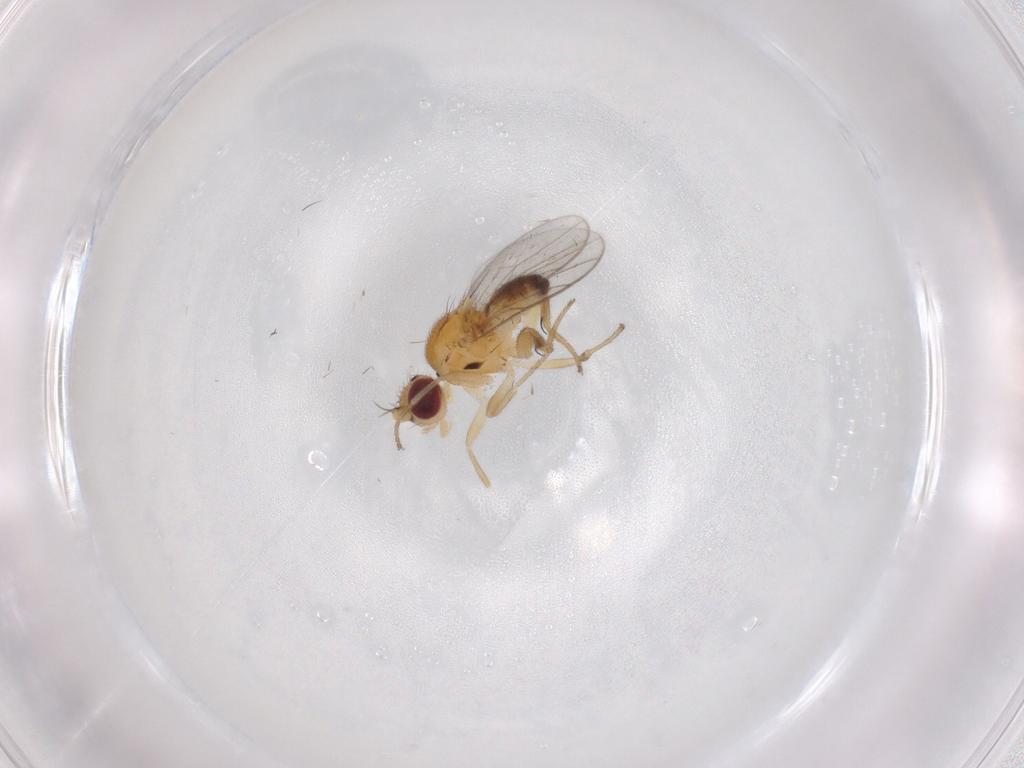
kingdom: Animalia
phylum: Arthropoda
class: Insecta
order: Diptera
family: Chloropidae
